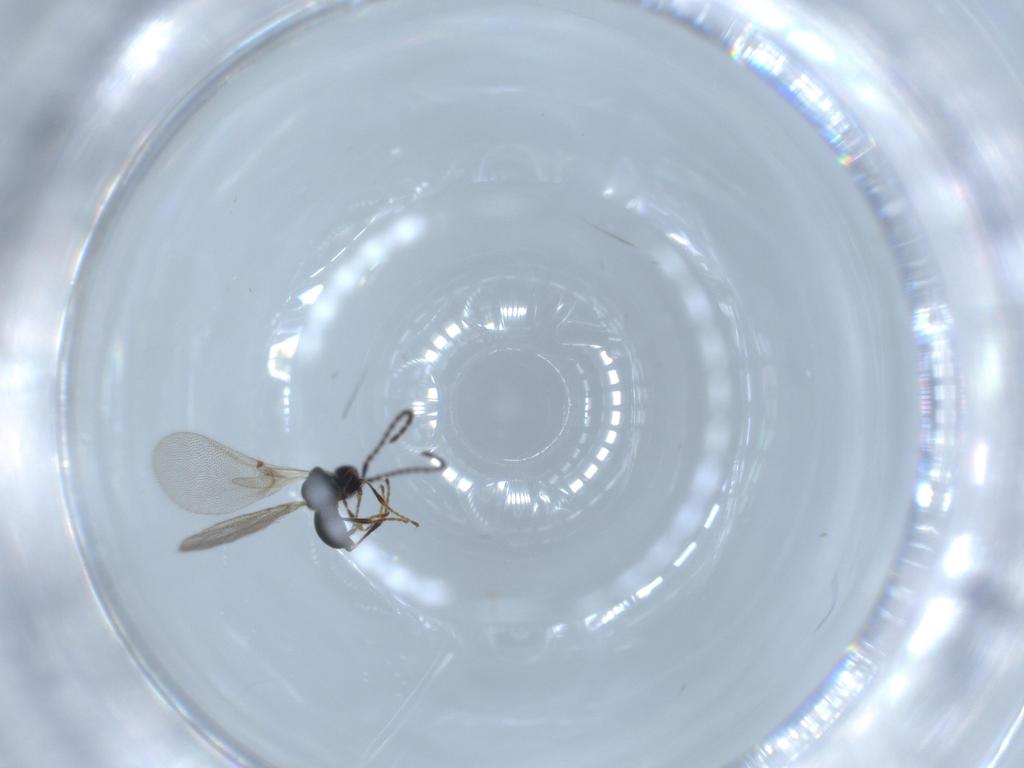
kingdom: Animalia
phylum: Arthropoda
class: Insecta
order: Hymenoptera
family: Diapriidae
